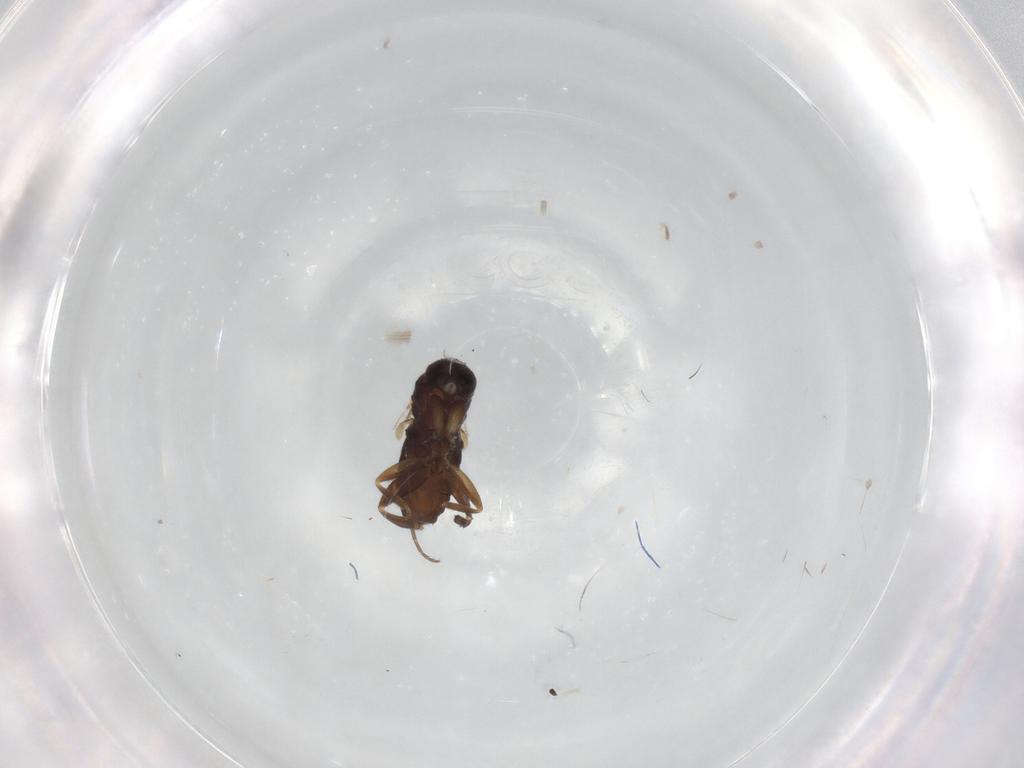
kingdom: Animalia
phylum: Arthropoda
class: Insecta
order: Diptera
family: Phoridae
